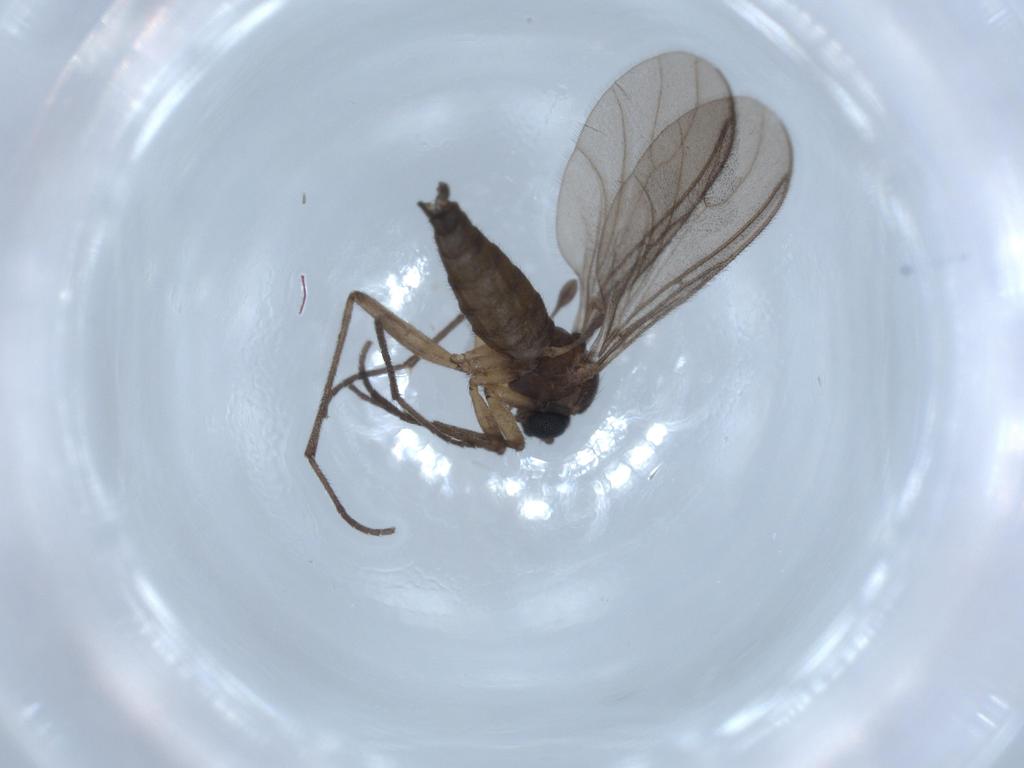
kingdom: Animalia
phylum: Arthropoda
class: Insecta
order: Diptera
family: Sciaridae
